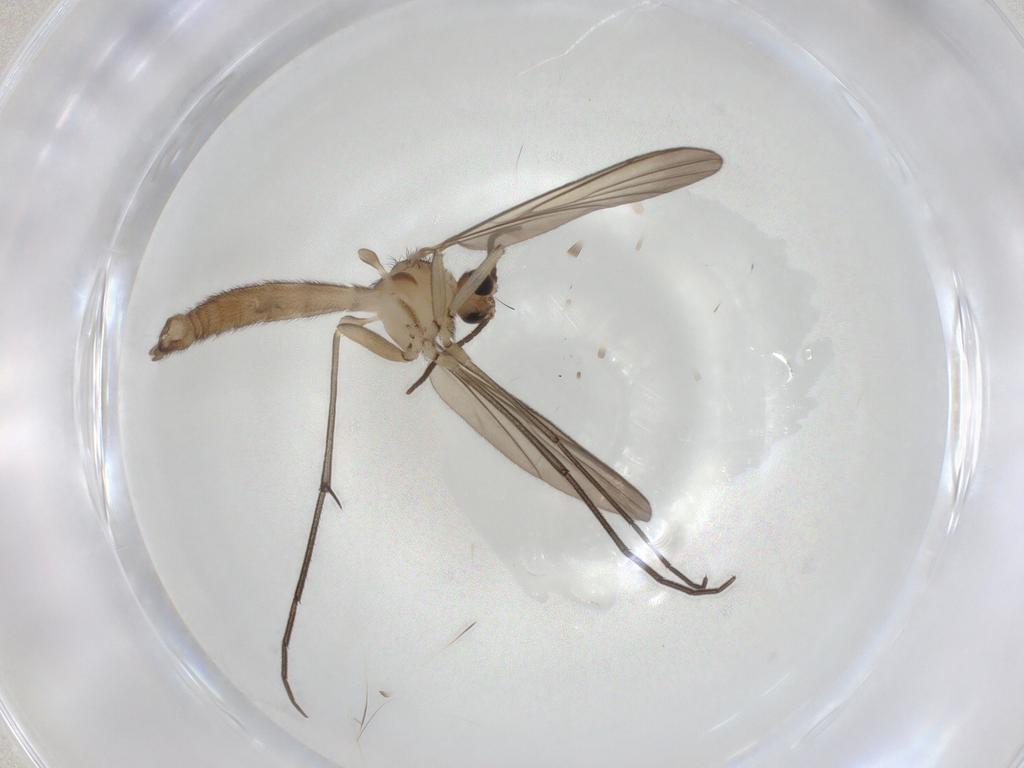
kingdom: Animalia
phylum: Arthropoda
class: Insecta
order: Diptera
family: Keroplatidae
